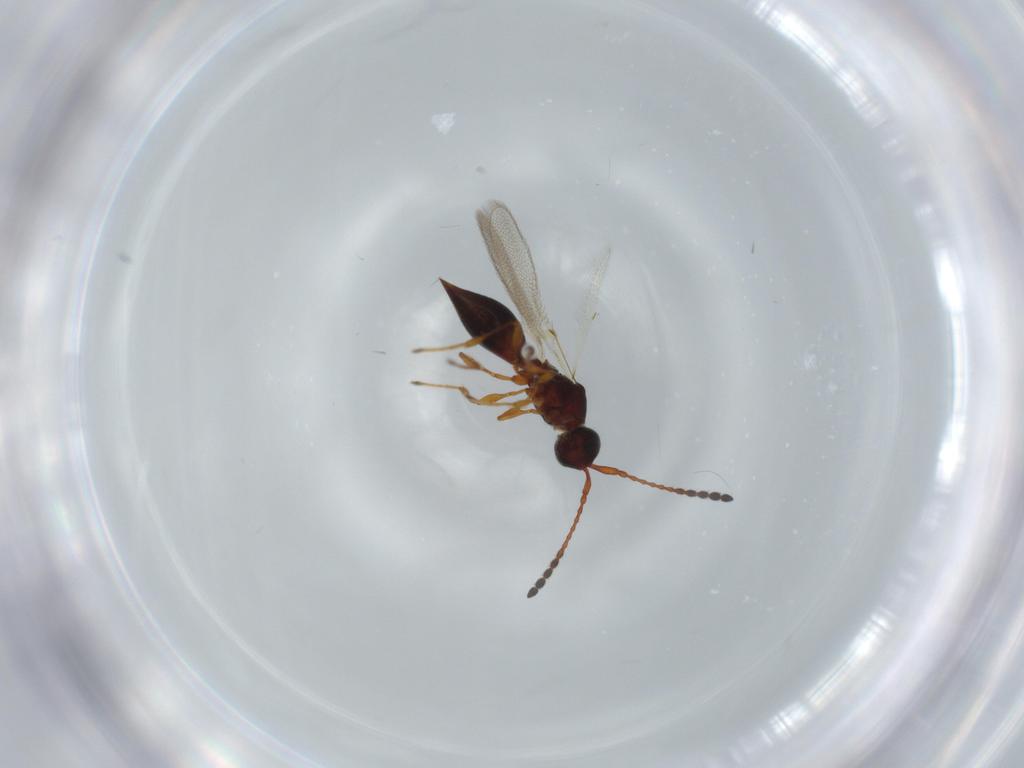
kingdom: Animalia
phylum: Arthropoda
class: Insecta
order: Hymenoptera
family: Diapriidae
